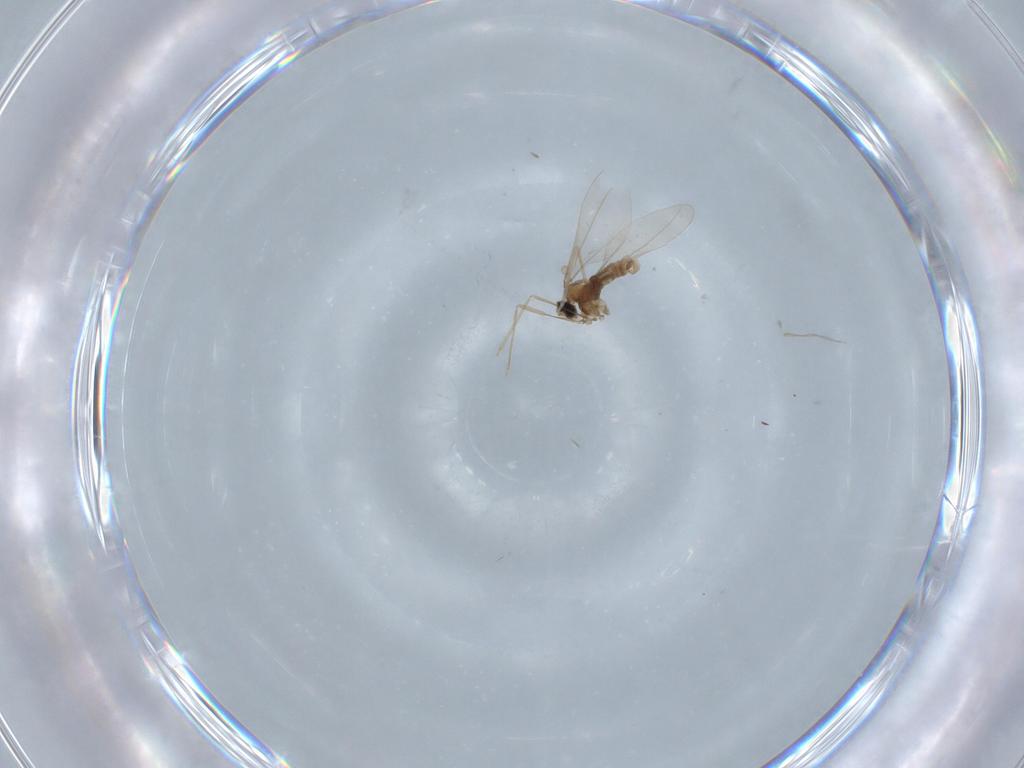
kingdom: Animalia
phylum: Arthropoda
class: Insecta
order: Diptera
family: Cecidomyiidae
